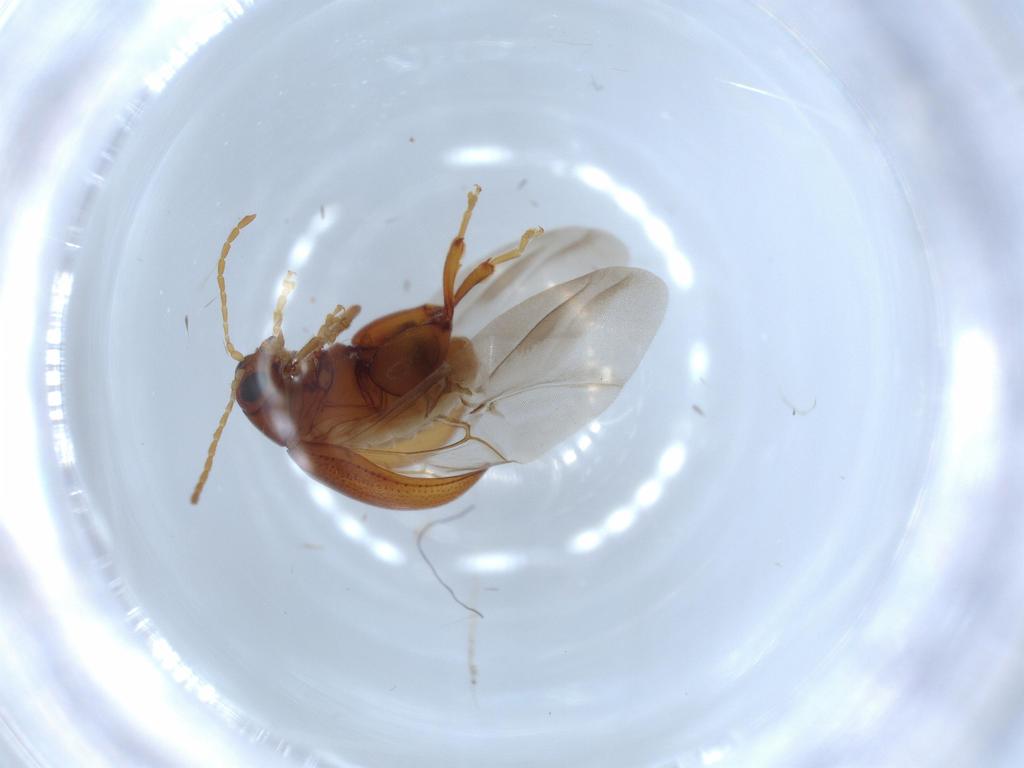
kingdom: Animalia
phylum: Arthropoda
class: Insecta
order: Coleoptera
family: Chrysomelidae
